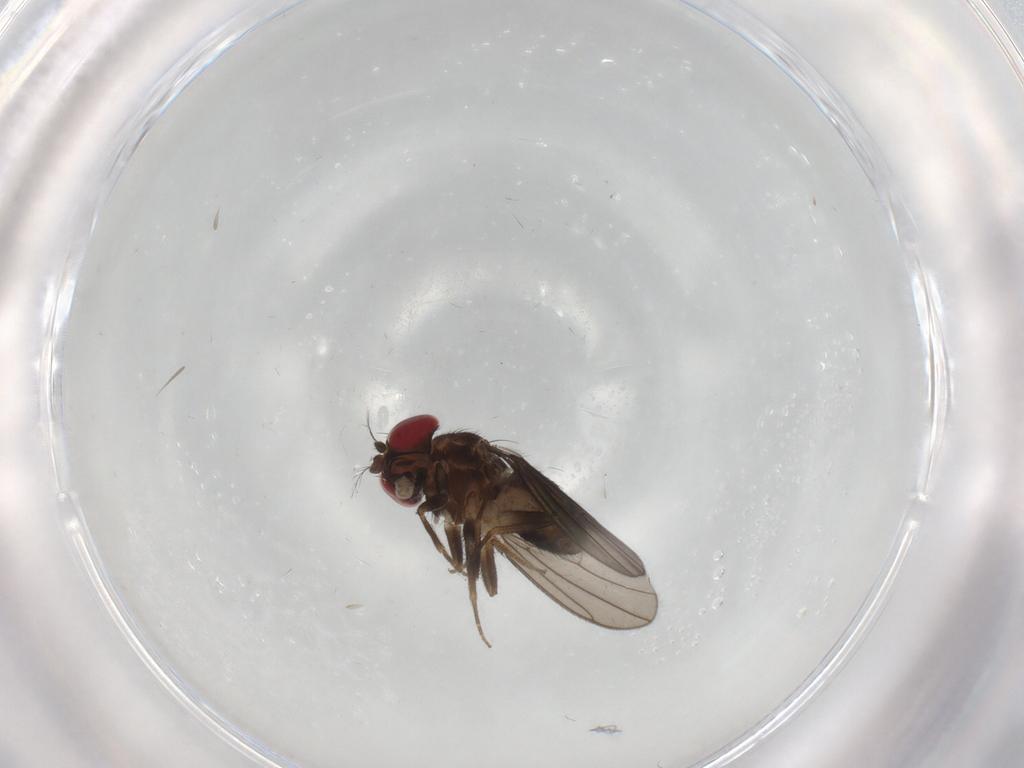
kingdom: Animalia
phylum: Arthropoda
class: Insecta
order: Diptera
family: Drosophilidae
